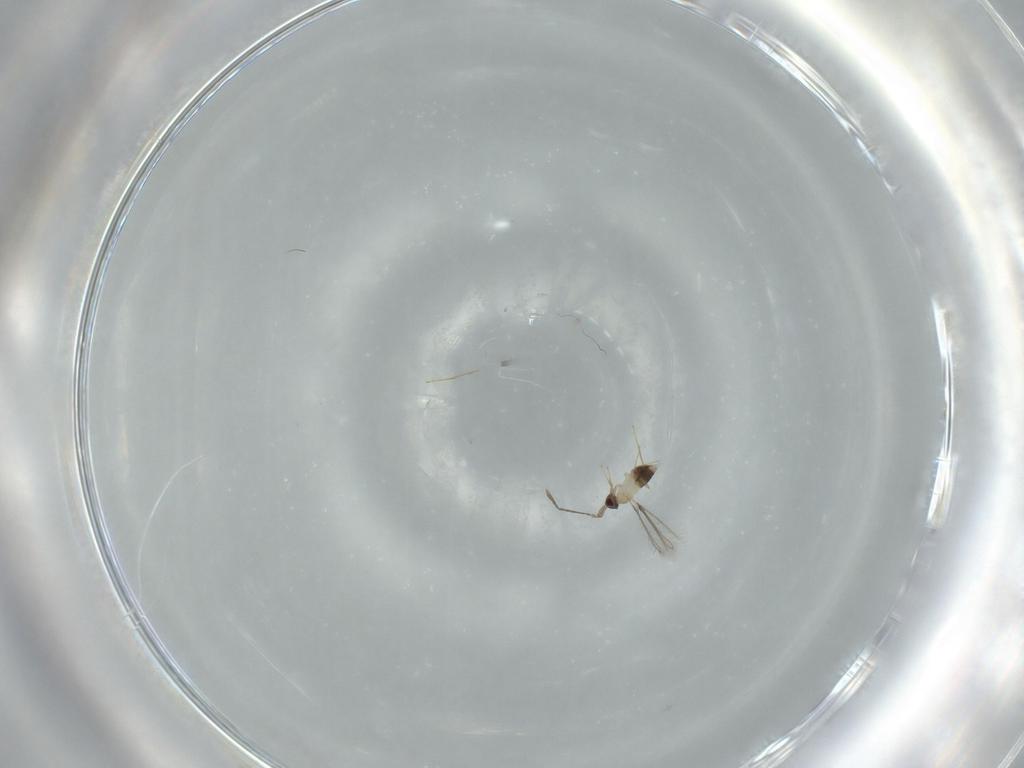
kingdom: Animalia
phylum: Arthropoda
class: Insecta
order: Hymenoptera
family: Mymaridae
